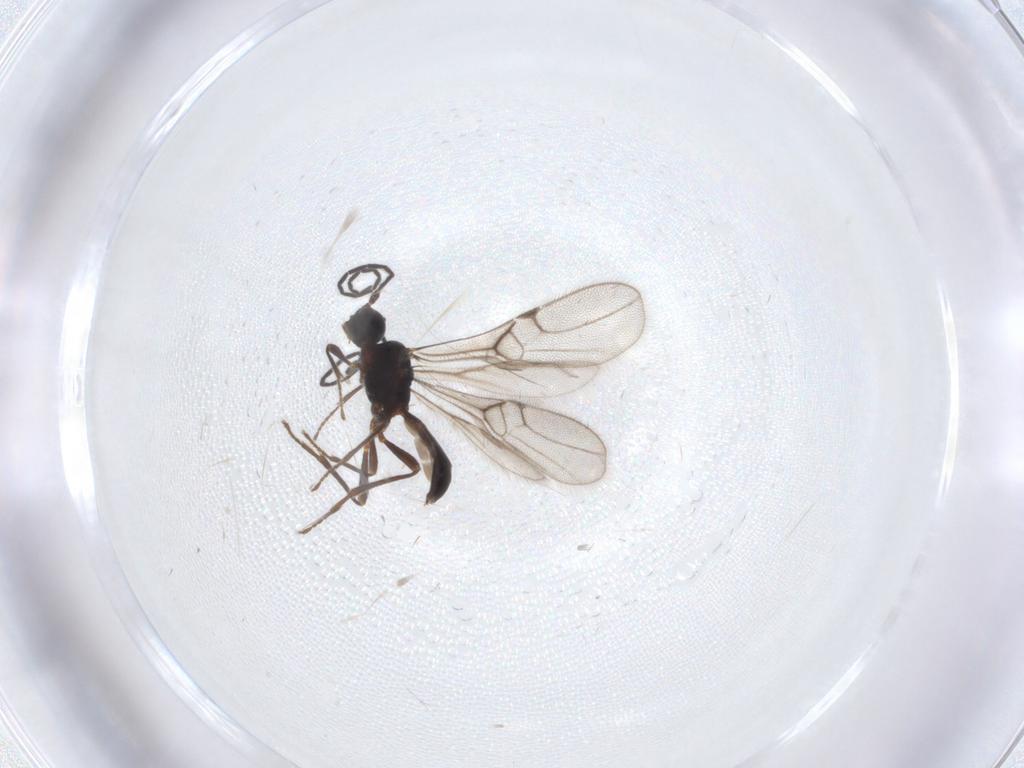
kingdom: Animalia
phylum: Arthropoda
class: Insecta
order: Hymenoptera
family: Braconidae
